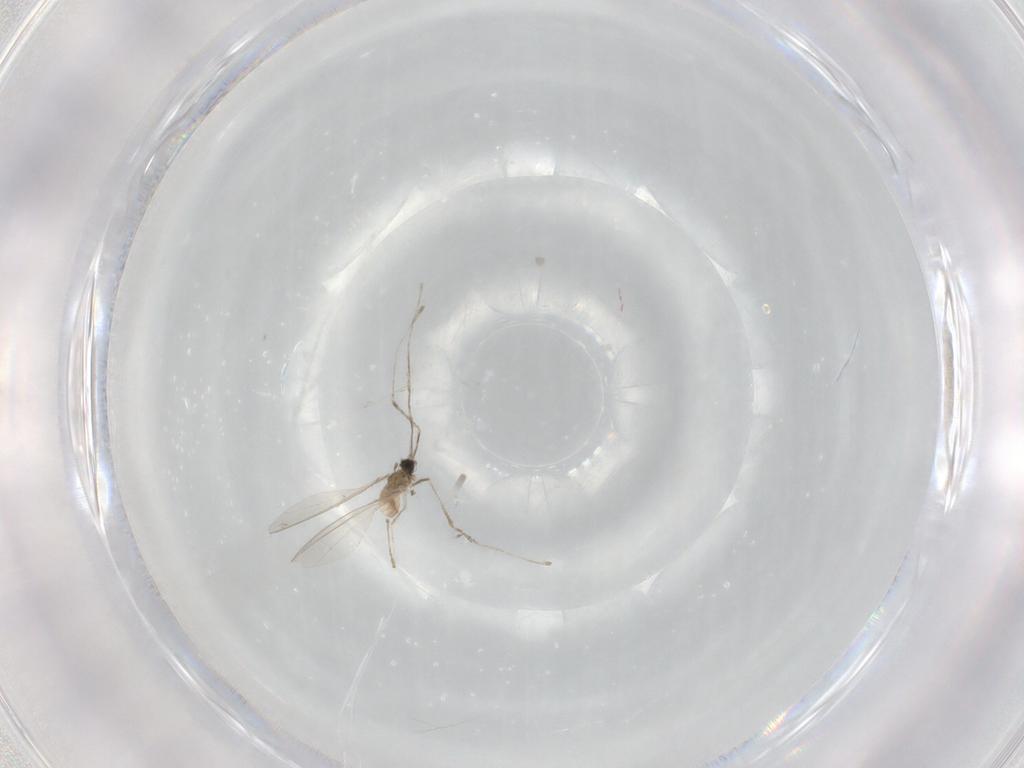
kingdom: Animalia
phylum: Arthropoda
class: Insecta
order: Diptera
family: Cecidomyiidae
